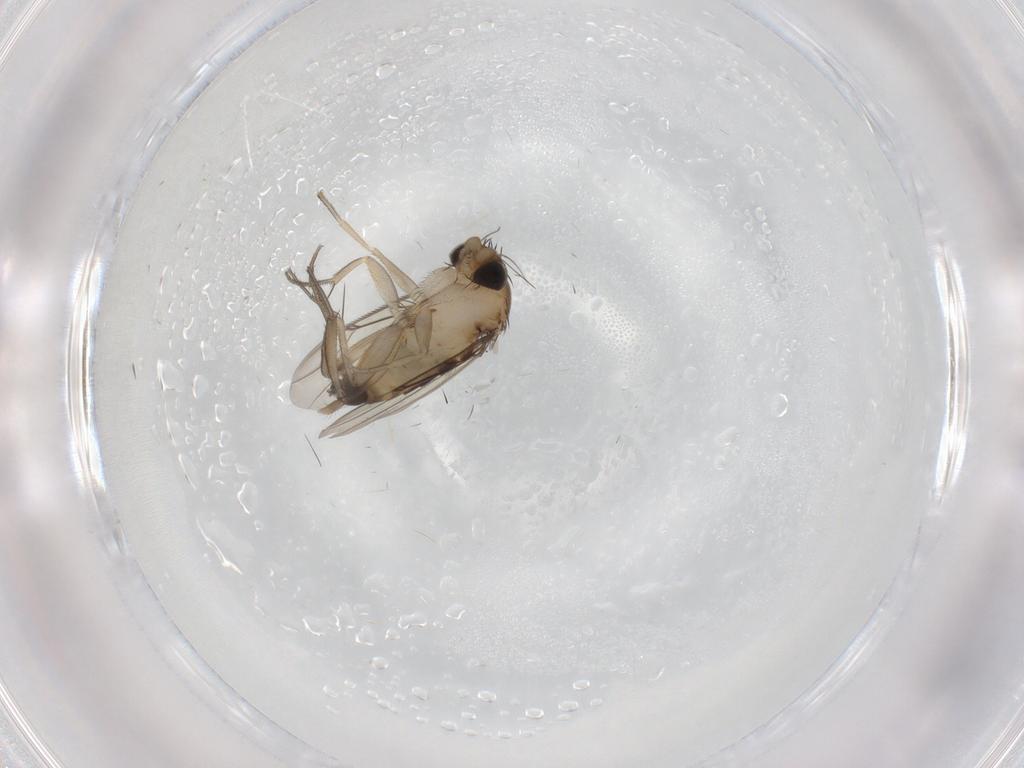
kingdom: Animalia
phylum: Arthropoda
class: Insecta
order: Diptera
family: Phoridae
